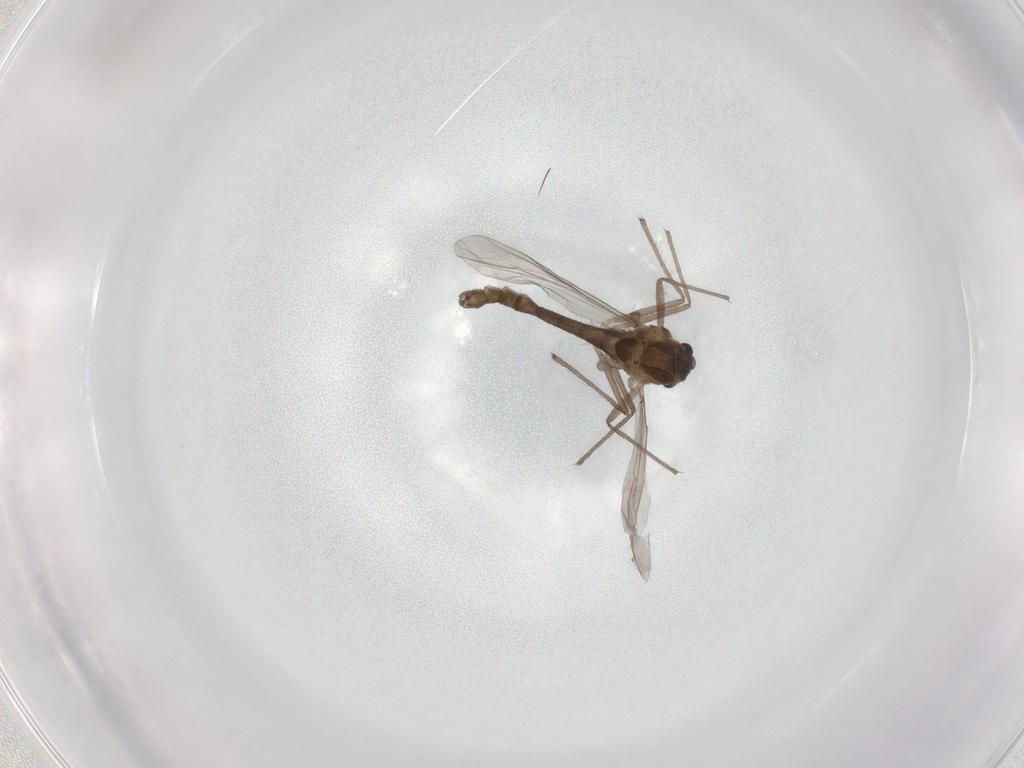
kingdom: Animalia
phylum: Arthropoda
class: Insecta
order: Diptera
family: Chironomidae
